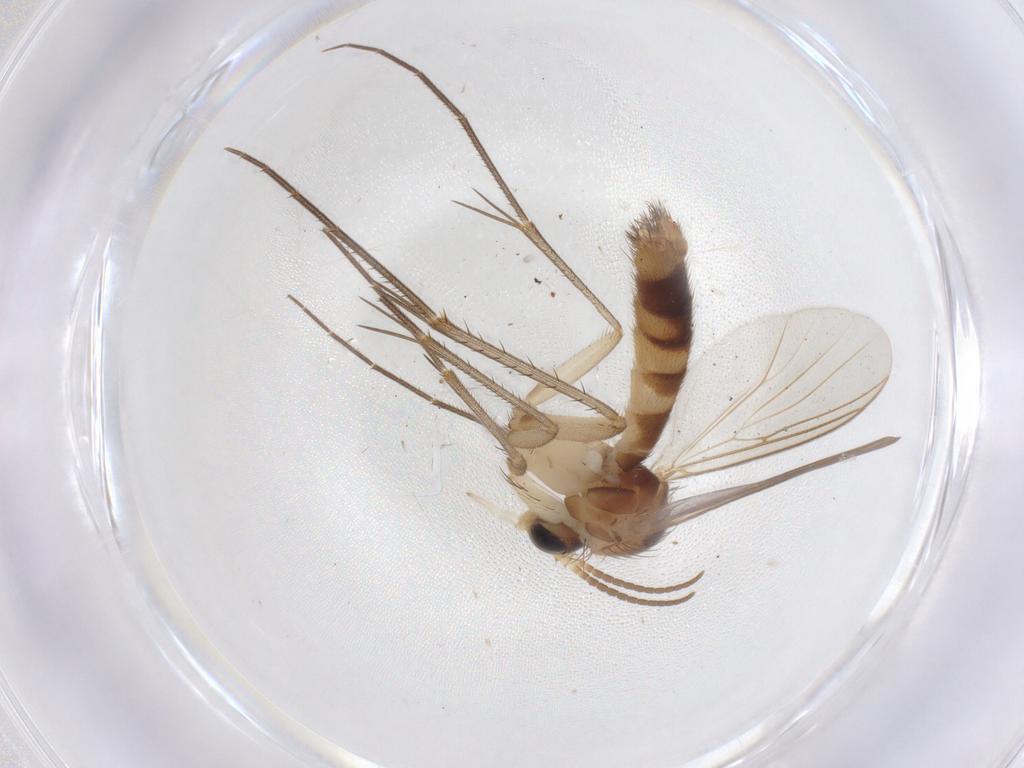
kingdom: Animalia
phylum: Arthropoda
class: Insecta
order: Diptera
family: Mycetophilidae
